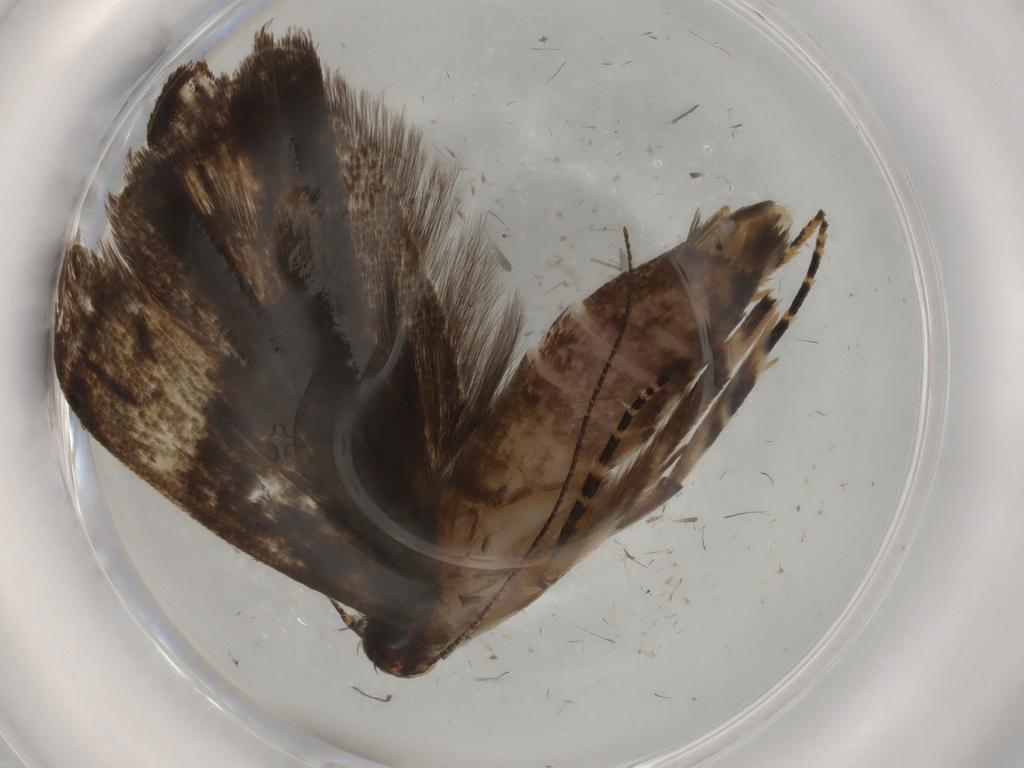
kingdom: Animalia
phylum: Arthropoda
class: Insecta
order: Lepidoptera
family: Gelechiidae
